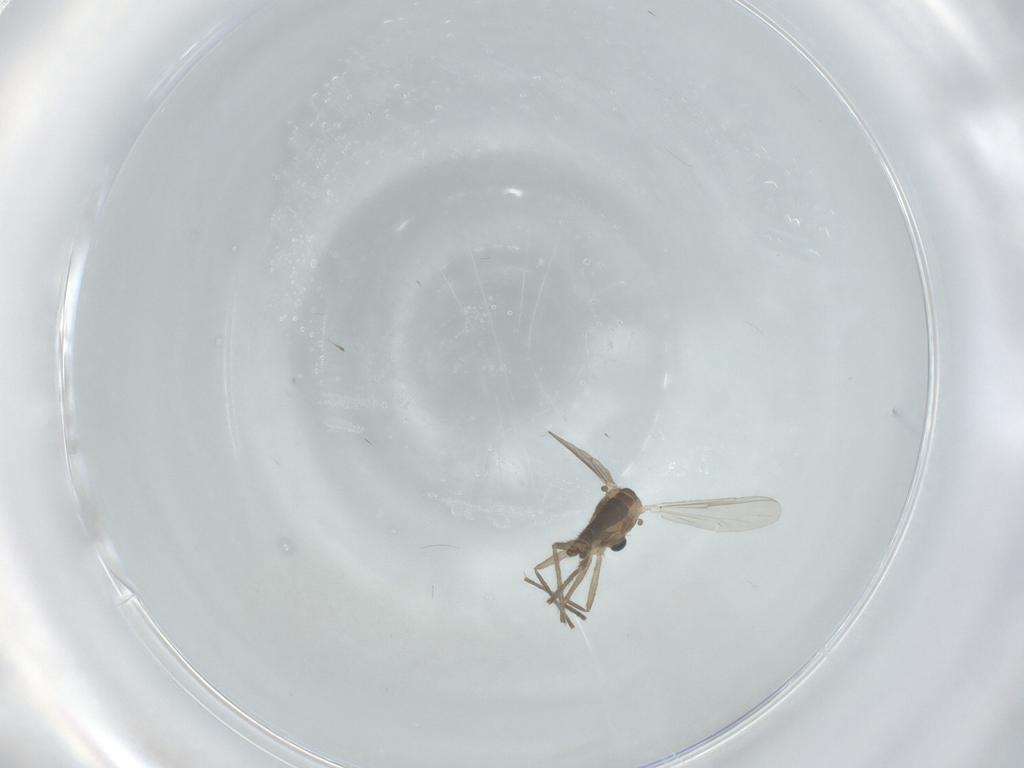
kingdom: Animalia
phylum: Arthropoda
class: Insecta
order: Diptera
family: Chironomidae
